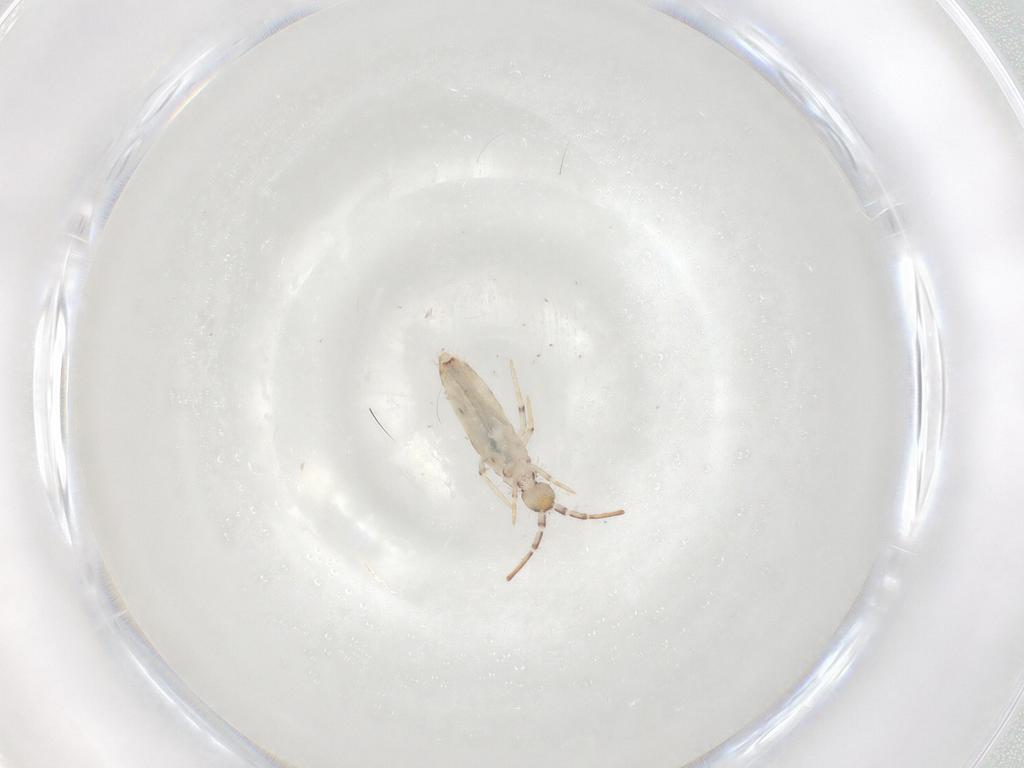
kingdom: Animalia
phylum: Arthropoda
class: Collembola
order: Entomobryomorpha
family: Entomobryidae
